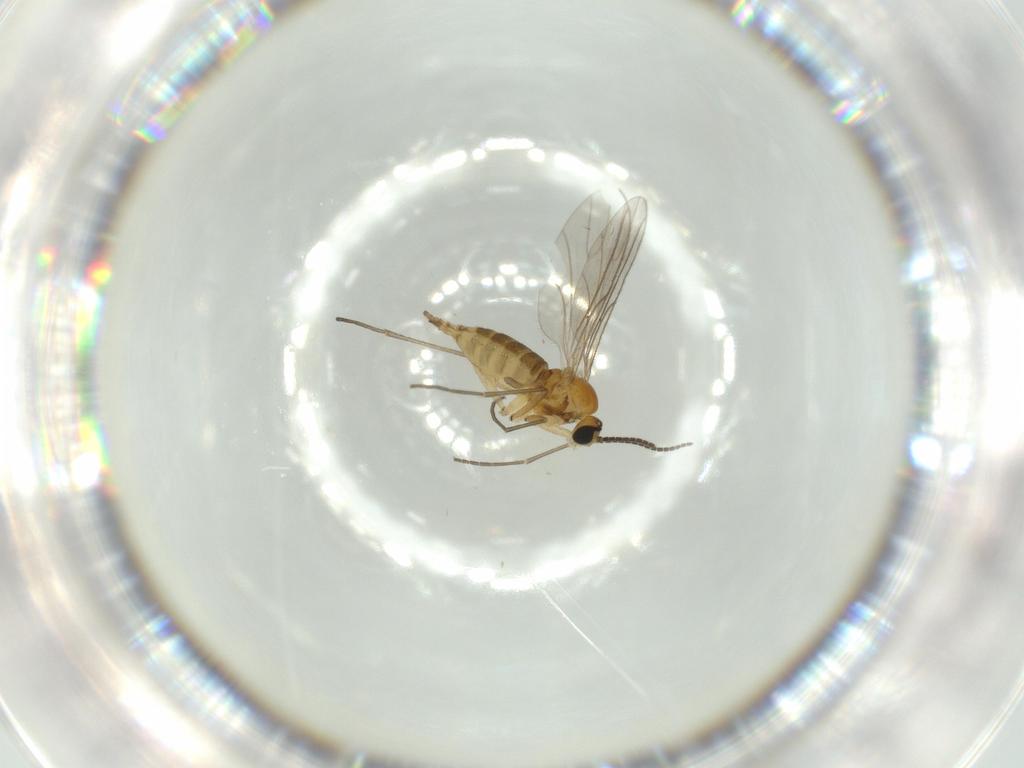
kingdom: Animalia
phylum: Arthropoda
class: Insecta
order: Diptera
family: Sciaridae
